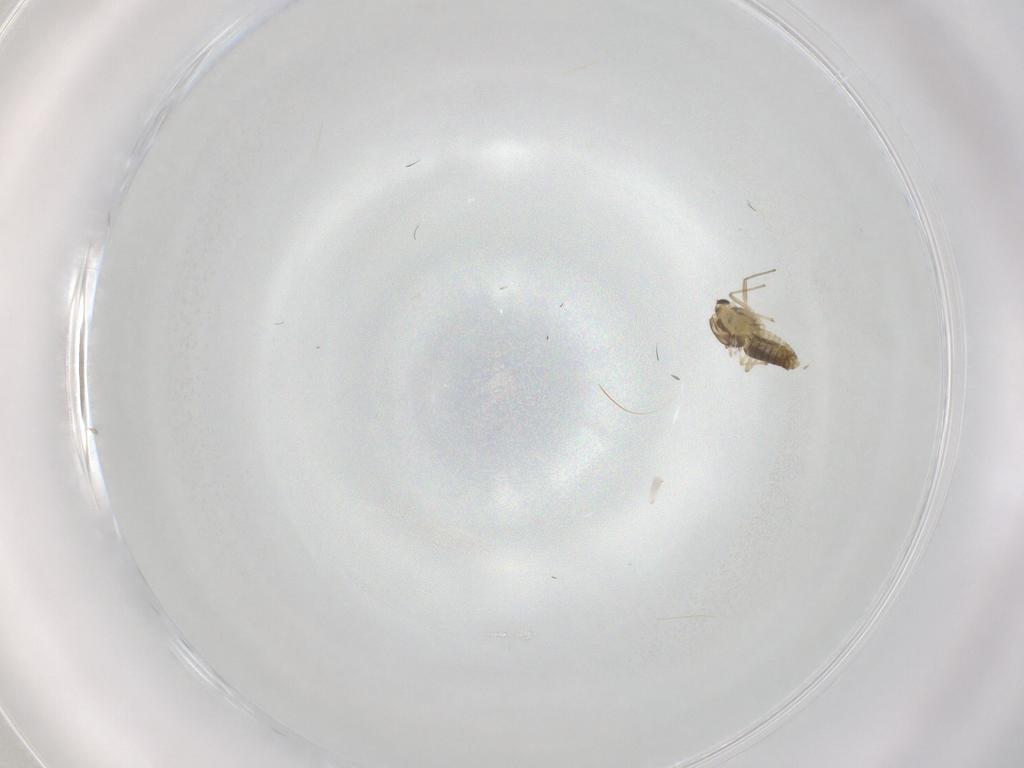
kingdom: Animalia
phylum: Arthropoda
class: Insecta
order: Diptera
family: Chironomidae
